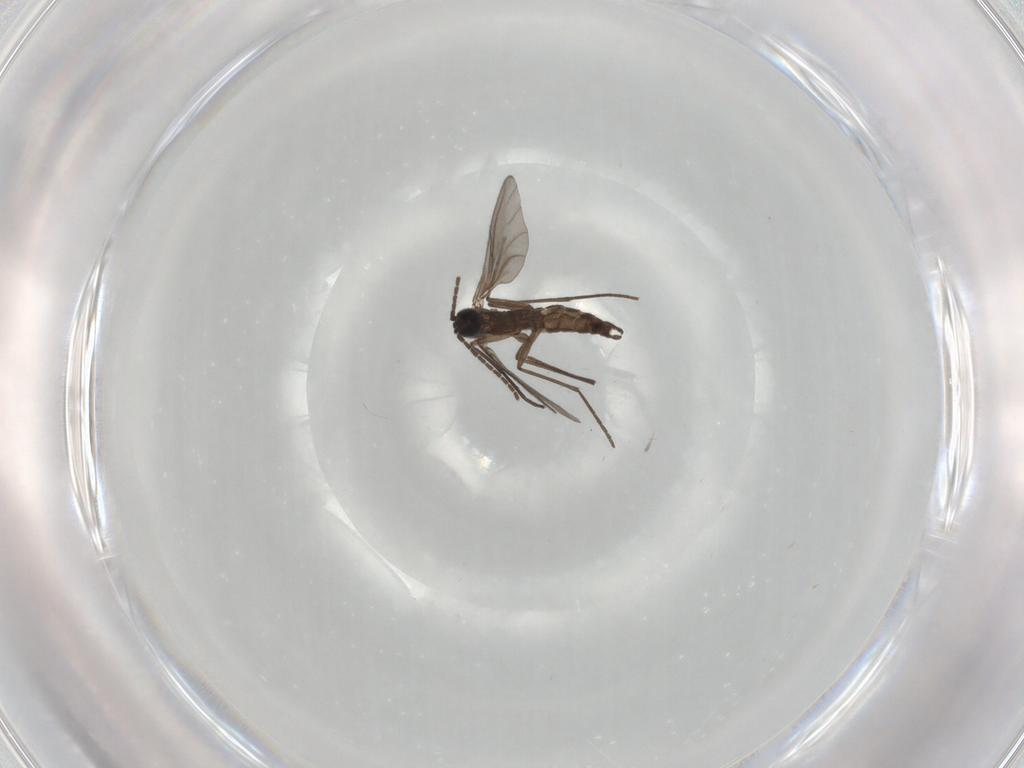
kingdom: Animalia
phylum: Arthropoda
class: Insecta
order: Diptera
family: Sciaridae
